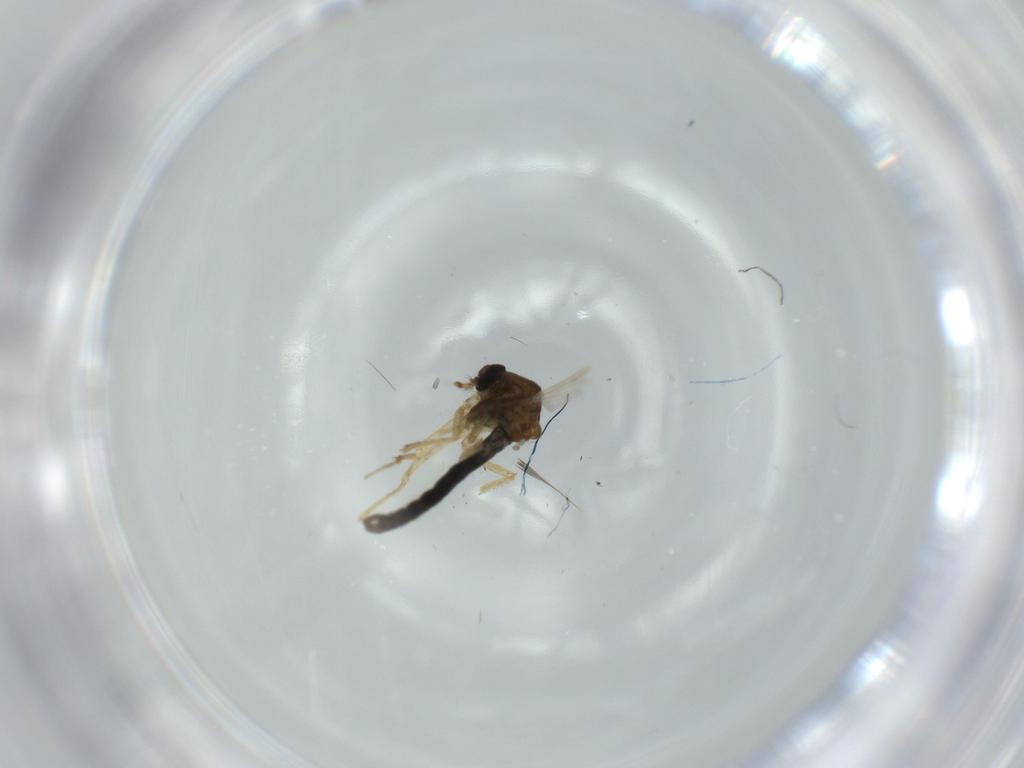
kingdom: Animalia
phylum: Arthropoda
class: Insecta
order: Diptera
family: Ceratopogonidae
